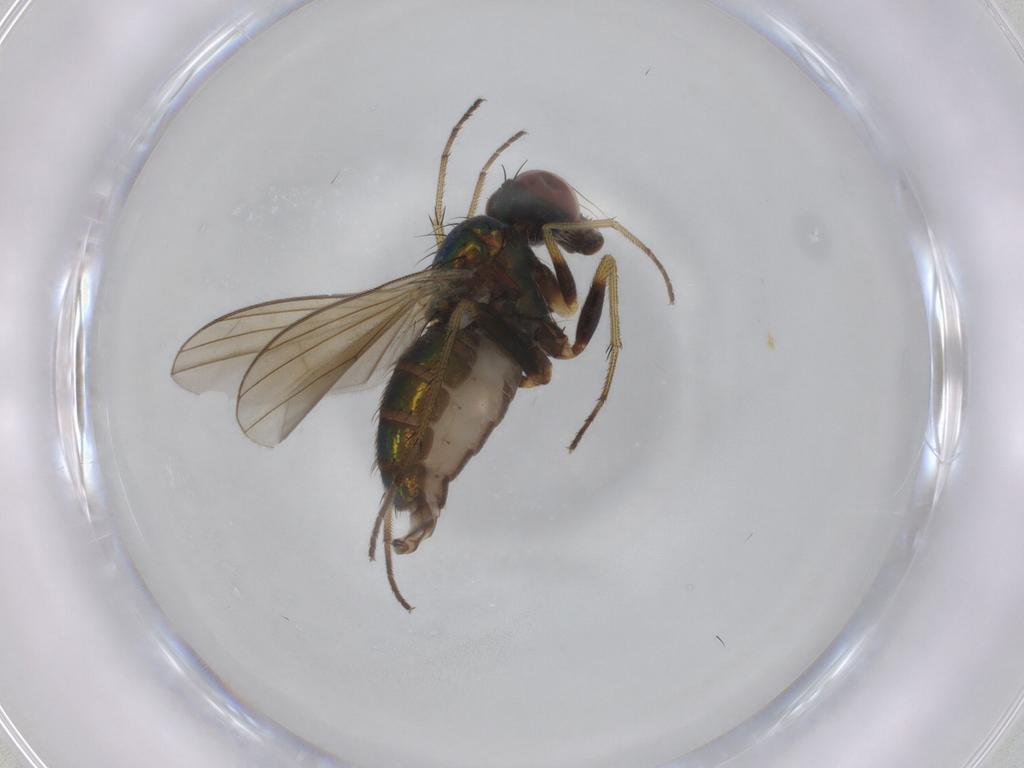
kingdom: Animalia
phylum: Arthropoda
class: Insecta
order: Diptera
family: Dolichopodidae
